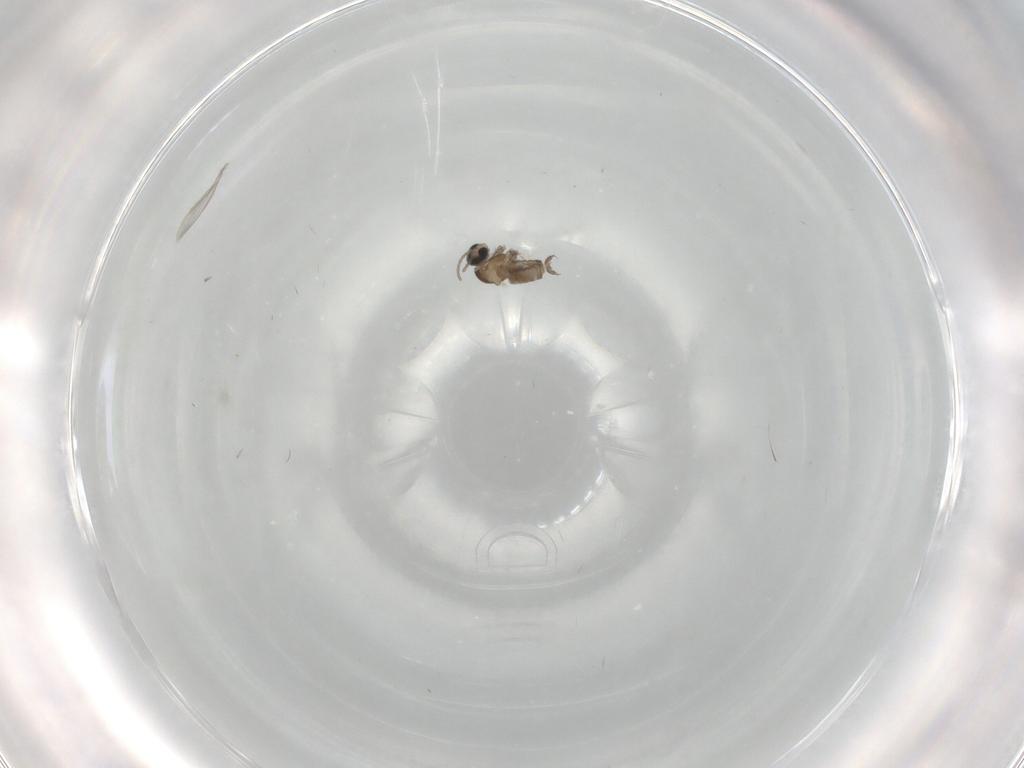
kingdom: Animalia
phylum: Arthropoda
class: Insecta
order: Diptera
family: Cecidomyiidae
